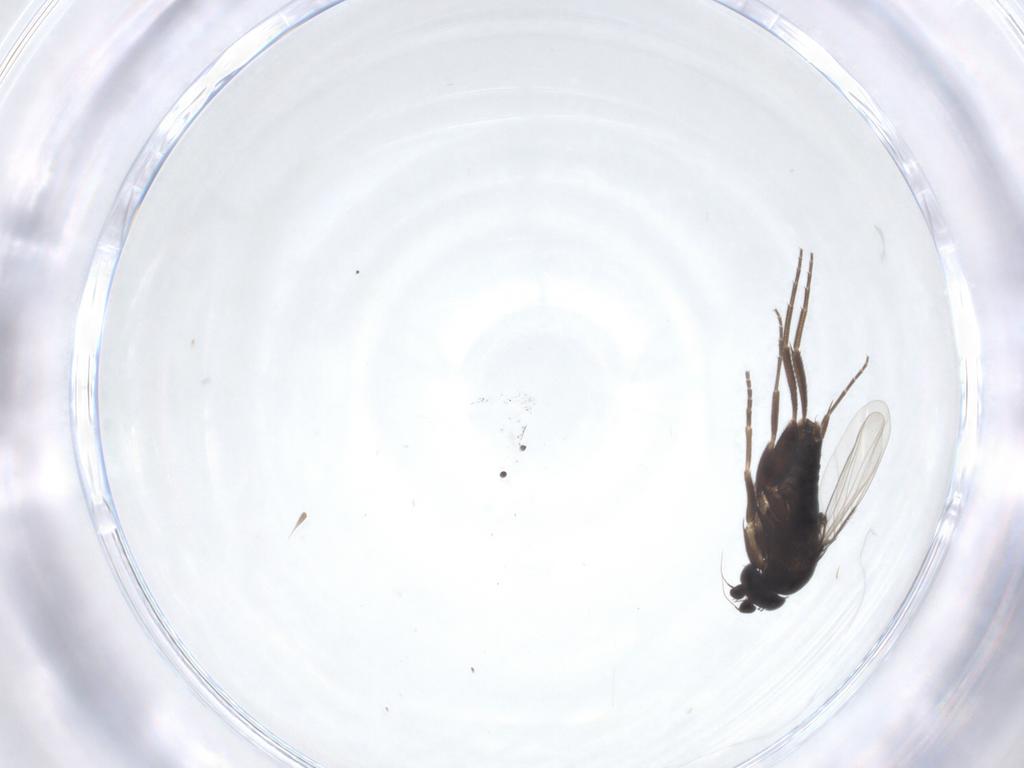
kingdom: Animalia
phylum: Arthropoda
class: Insecta
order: Diptera
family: Phoridae
